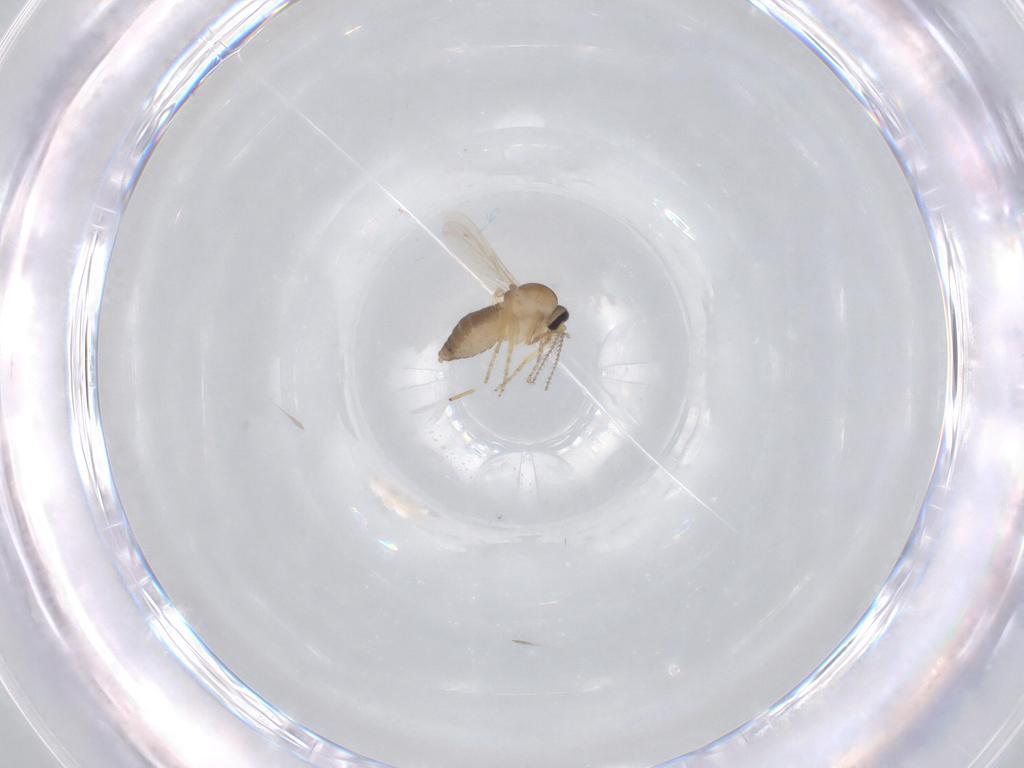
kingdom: Animalia
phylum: Arthropoda
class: Insecta
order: Diptera
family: Ceratopogonidae
